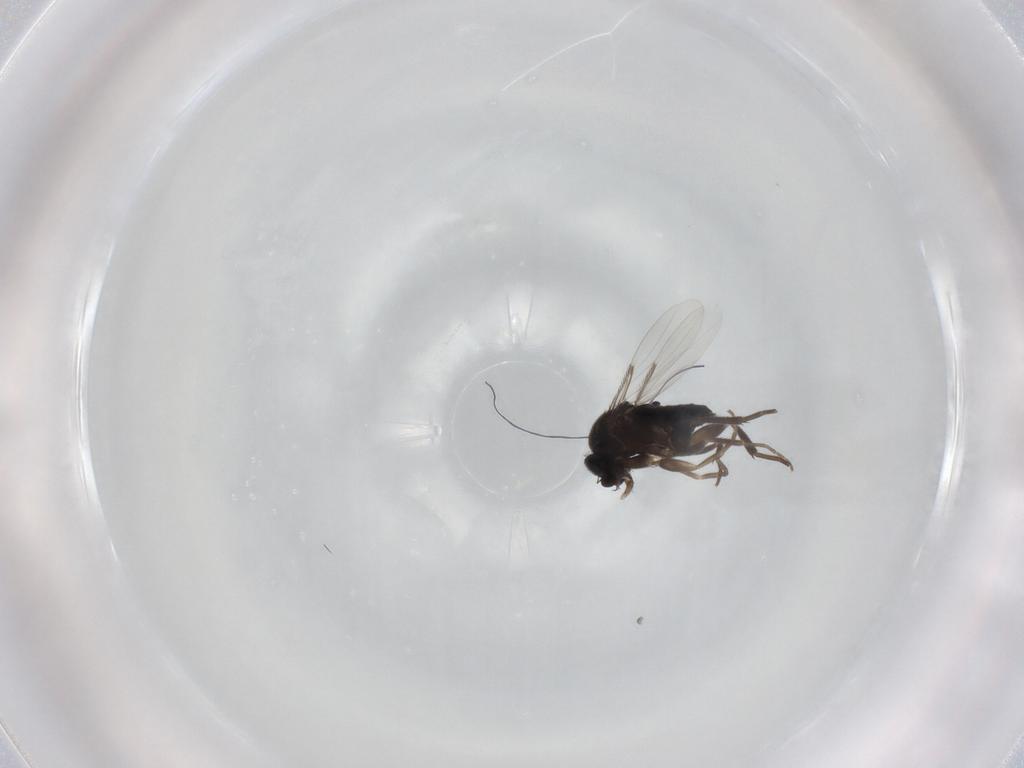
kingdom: Animalia
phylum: Arthropoda
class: Insecta
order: Diptera
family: Phoridae
